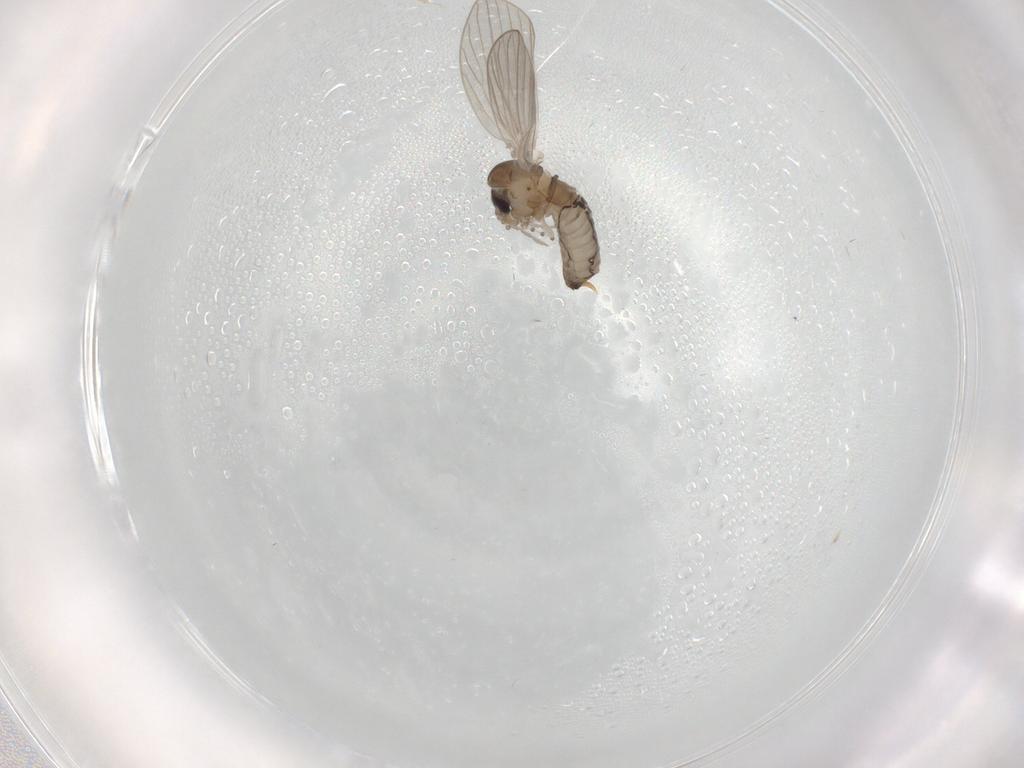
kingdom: Animalia
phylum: Arthropoda
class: Insecta
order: Diptera
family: Psychodidae
